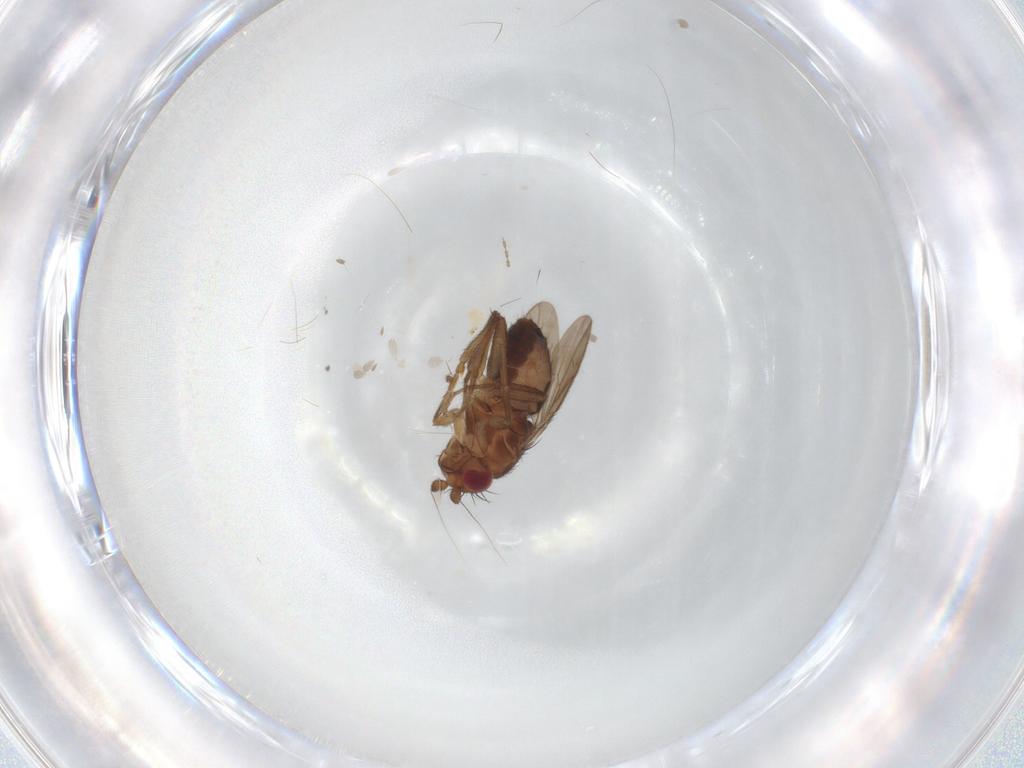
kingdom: Animalia
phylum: Arthropoda
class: Insecta
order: Diptera
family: Sphaeroceridae
